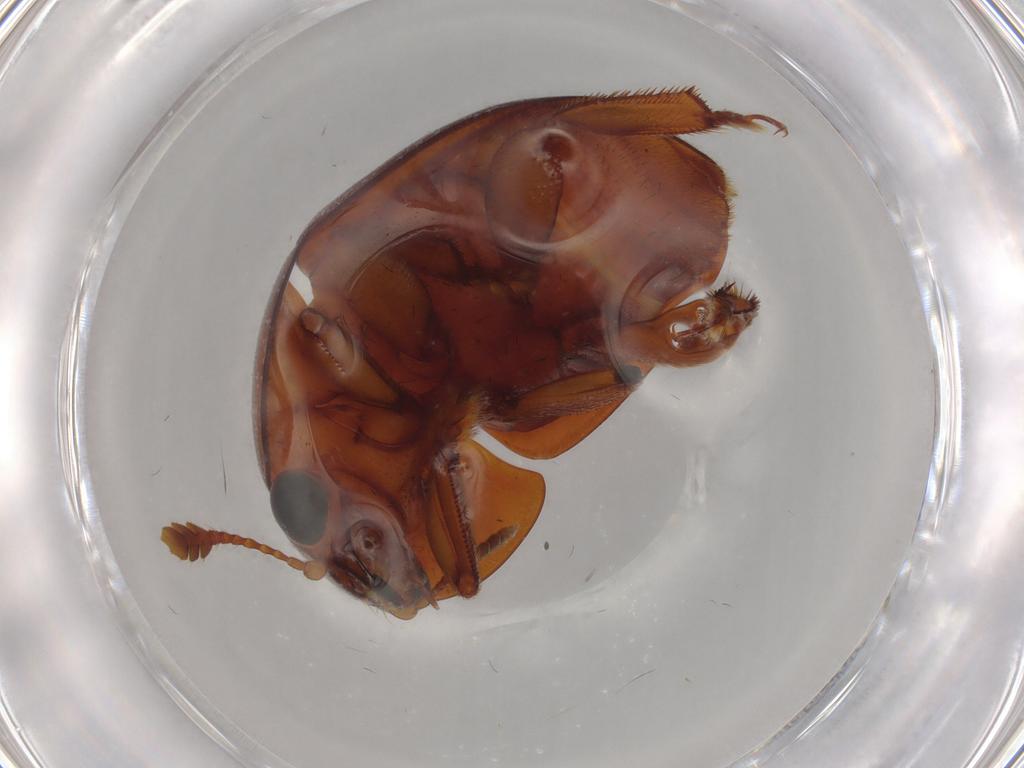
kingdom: Animalia
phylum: Arthropoda
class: Insecta
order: Coleoptera
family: Nitidulidae
